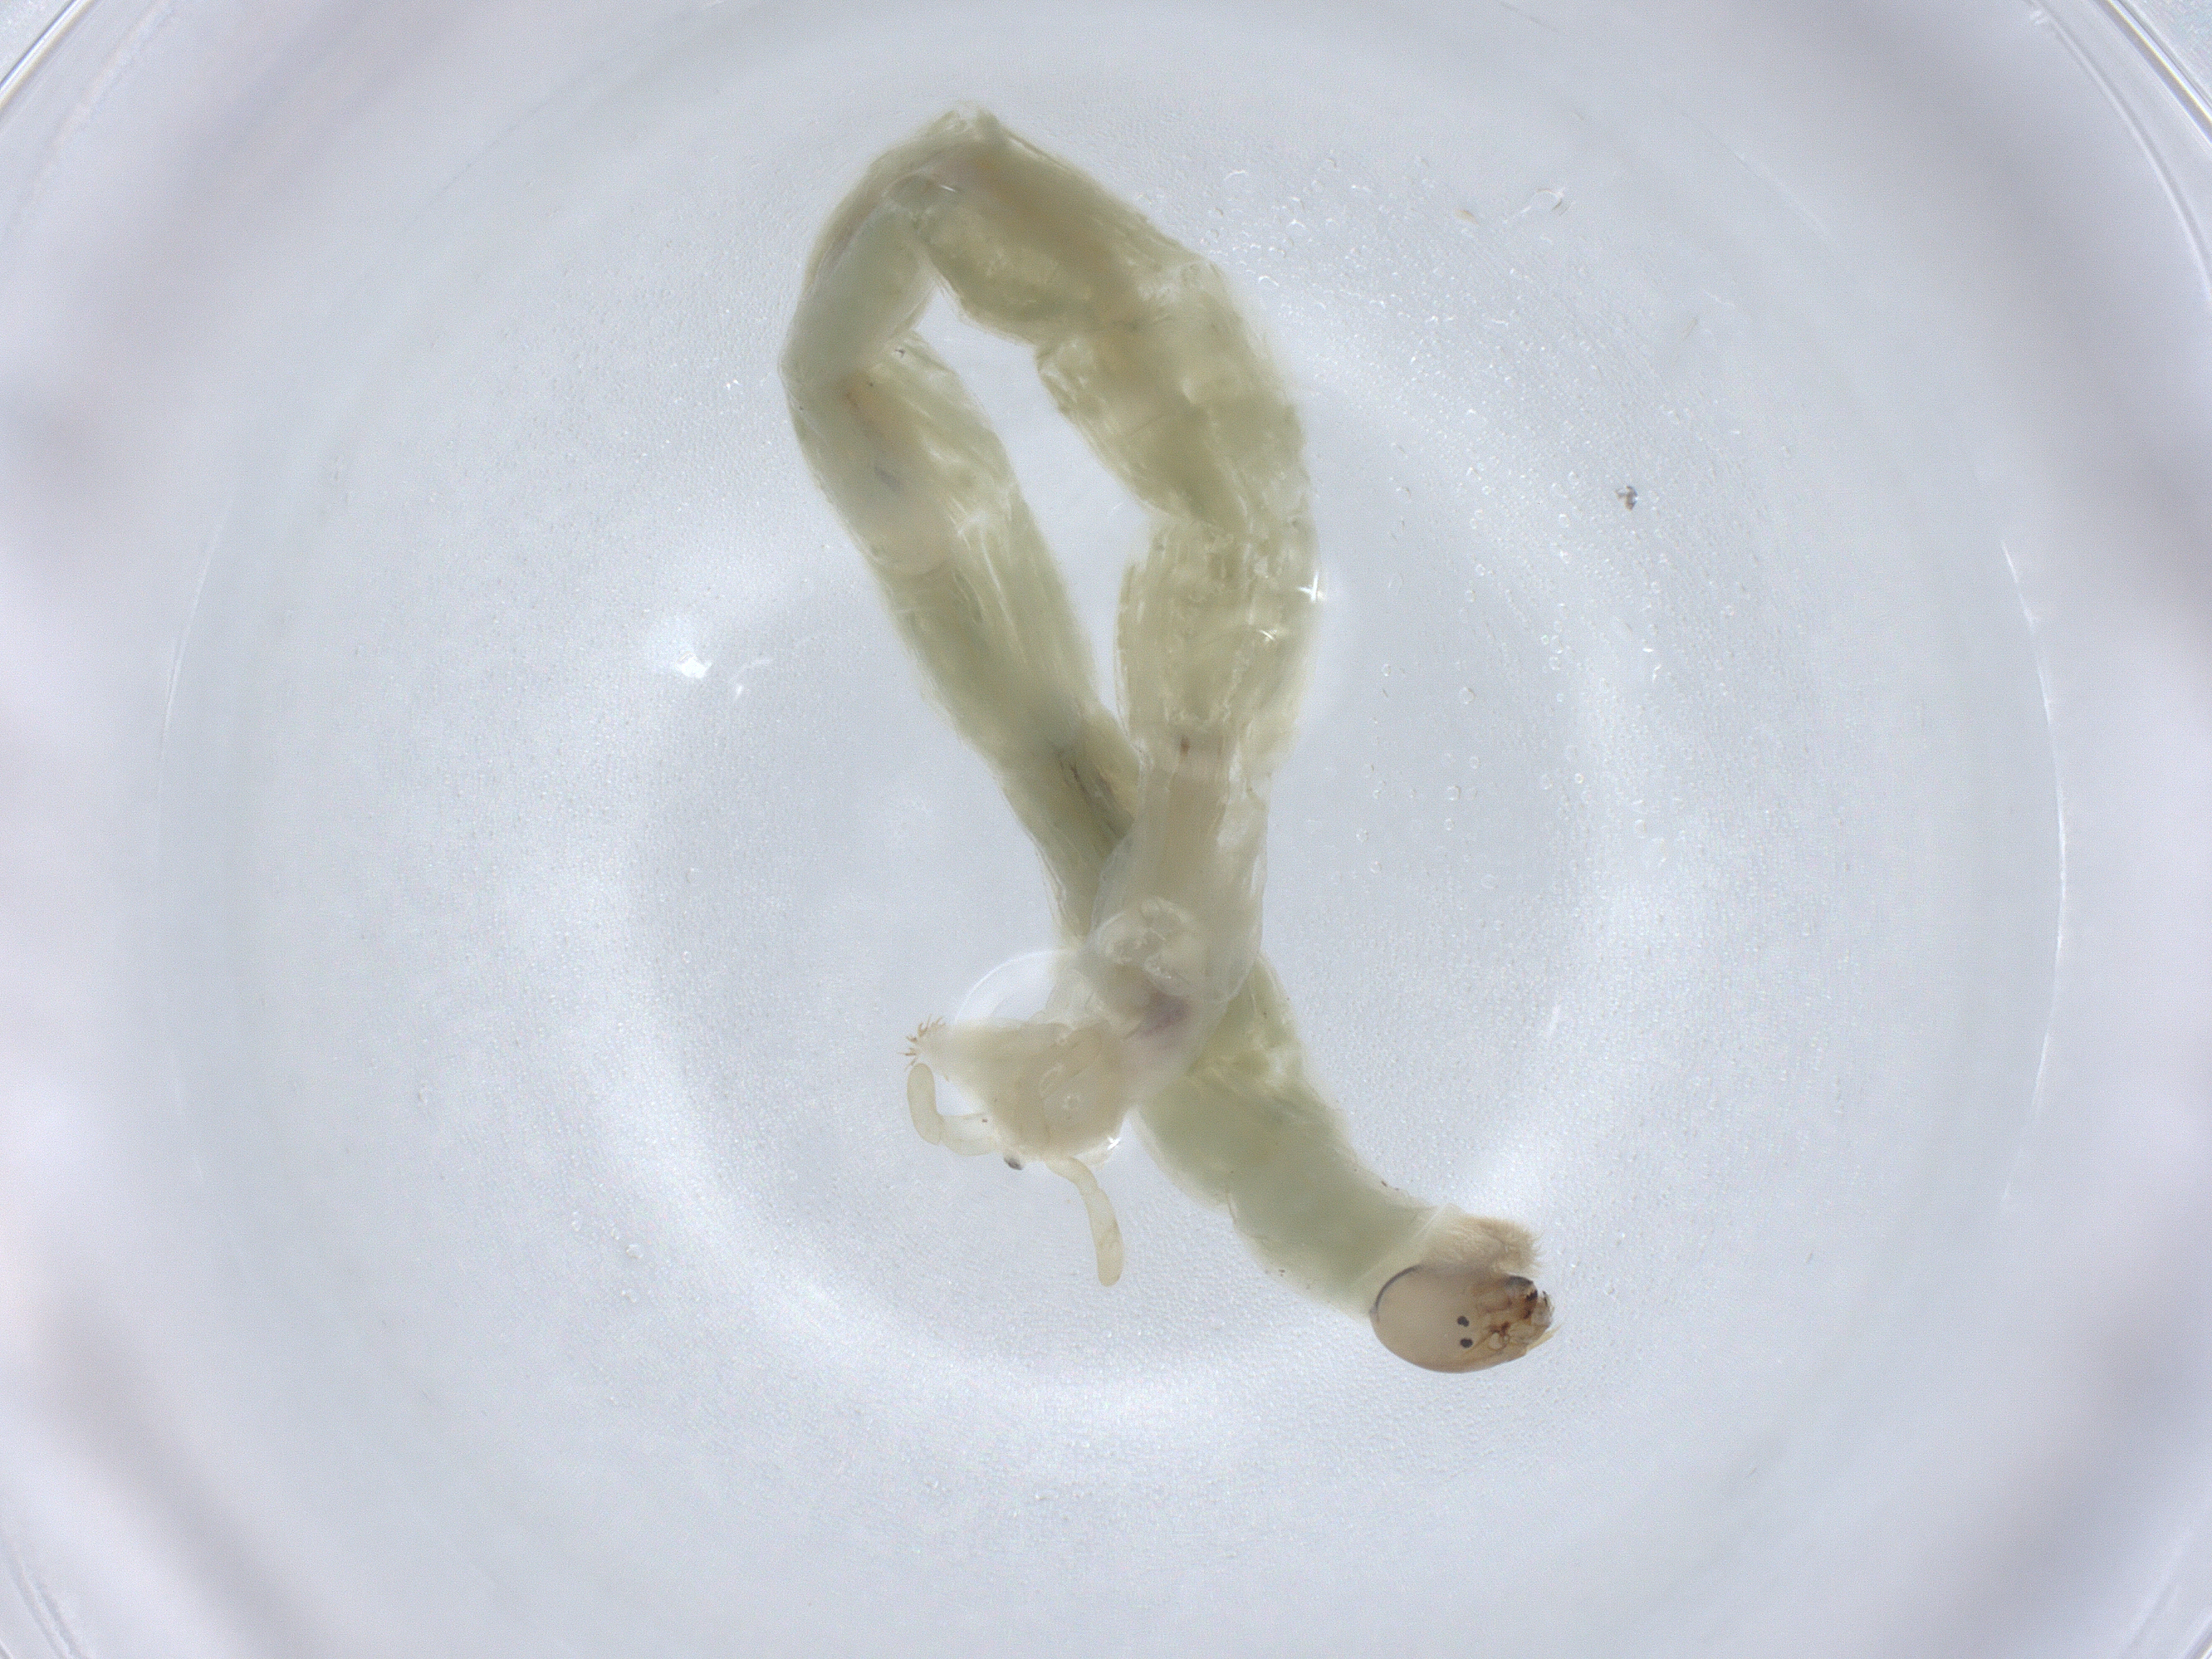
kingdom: Animalia
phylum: Arthropoda
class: Insecta
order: Diptera
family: Chironomidae
